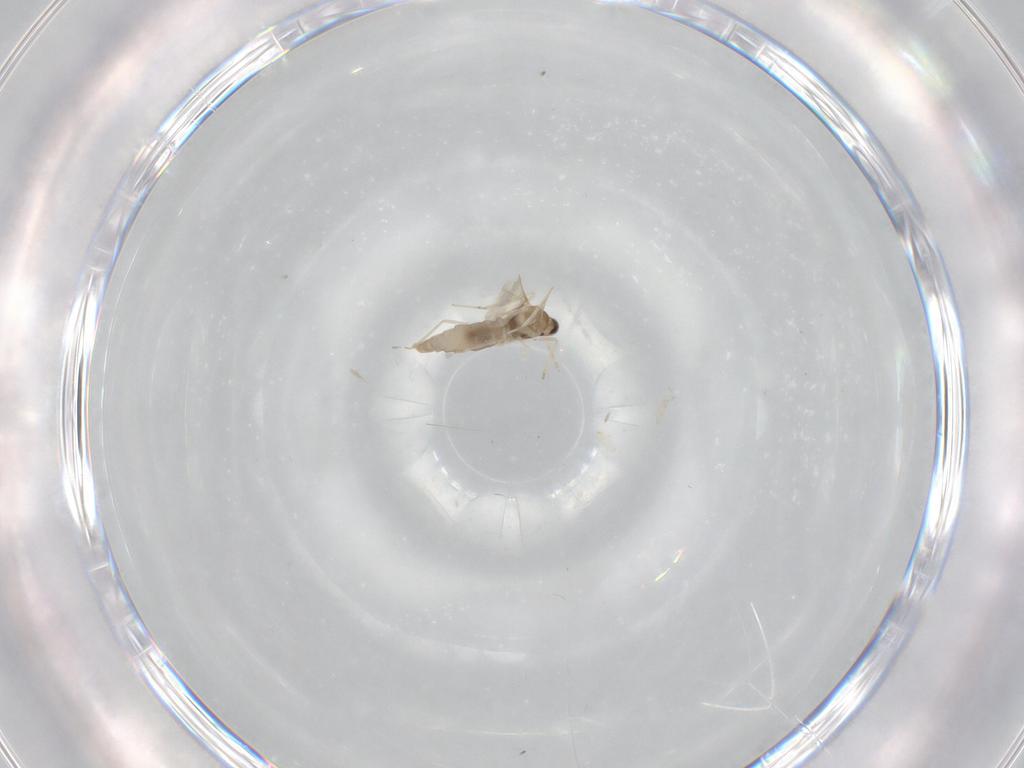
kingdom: Animalia
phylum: Arthropoda
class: Insecta
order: Diptera
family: Cecidomyiidae
